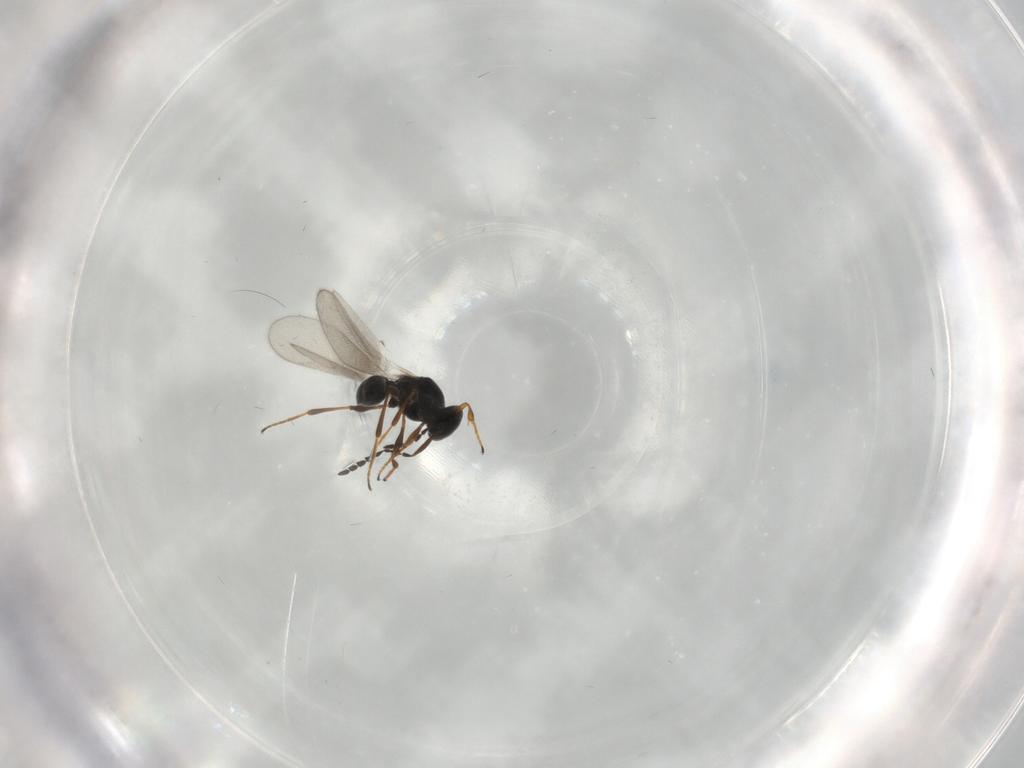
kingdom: Animalia
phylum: Arthropoda
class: Insecta
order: Hymenoptera
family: Platygastridae
